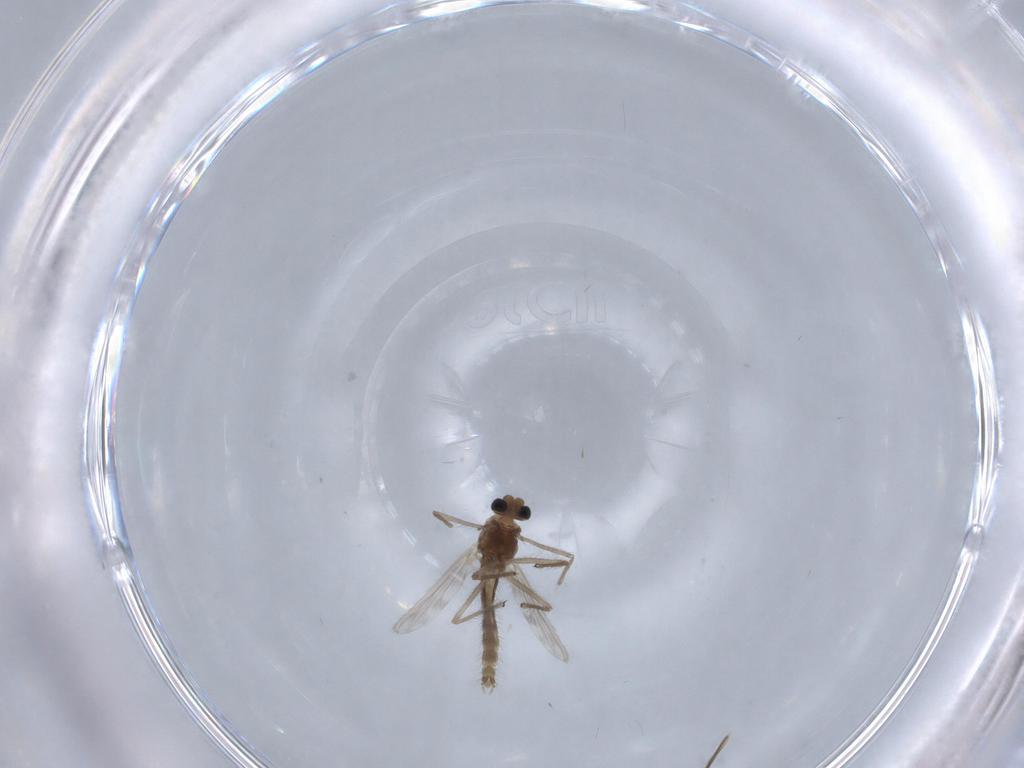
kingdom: Animalia
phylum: Arthropoda
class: Insecta
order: Diptera
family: Chironomidae
